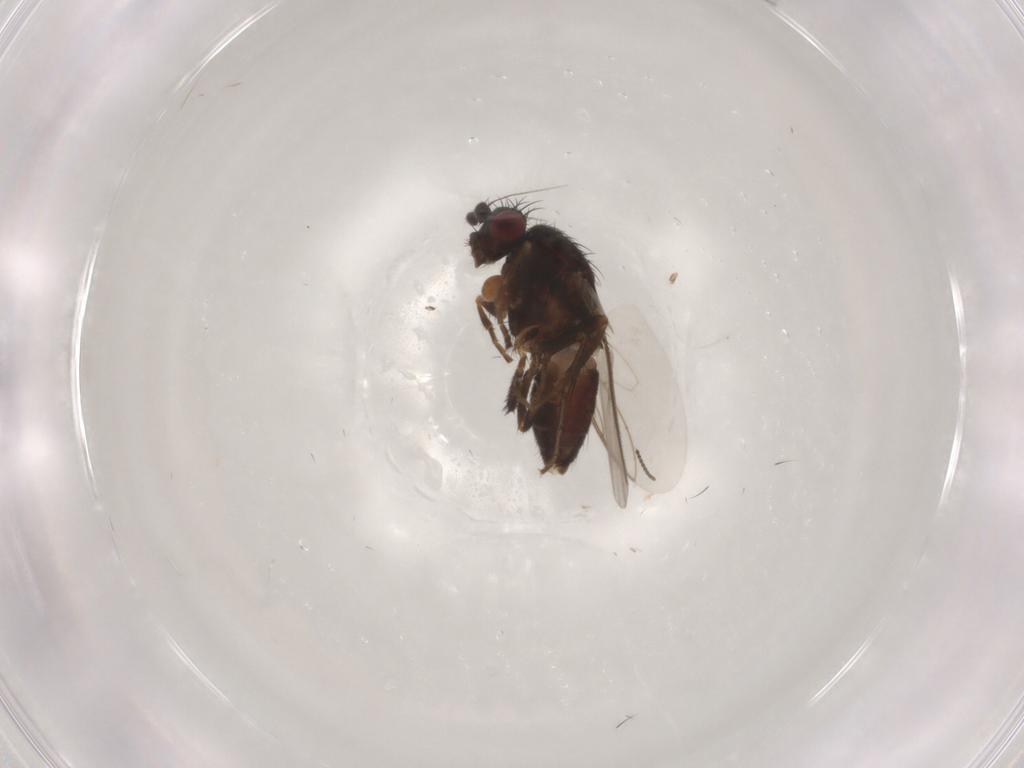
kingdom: Animalia
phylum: Arthropoda
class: Insecta
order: Diptera
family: Sphaeroceridae
